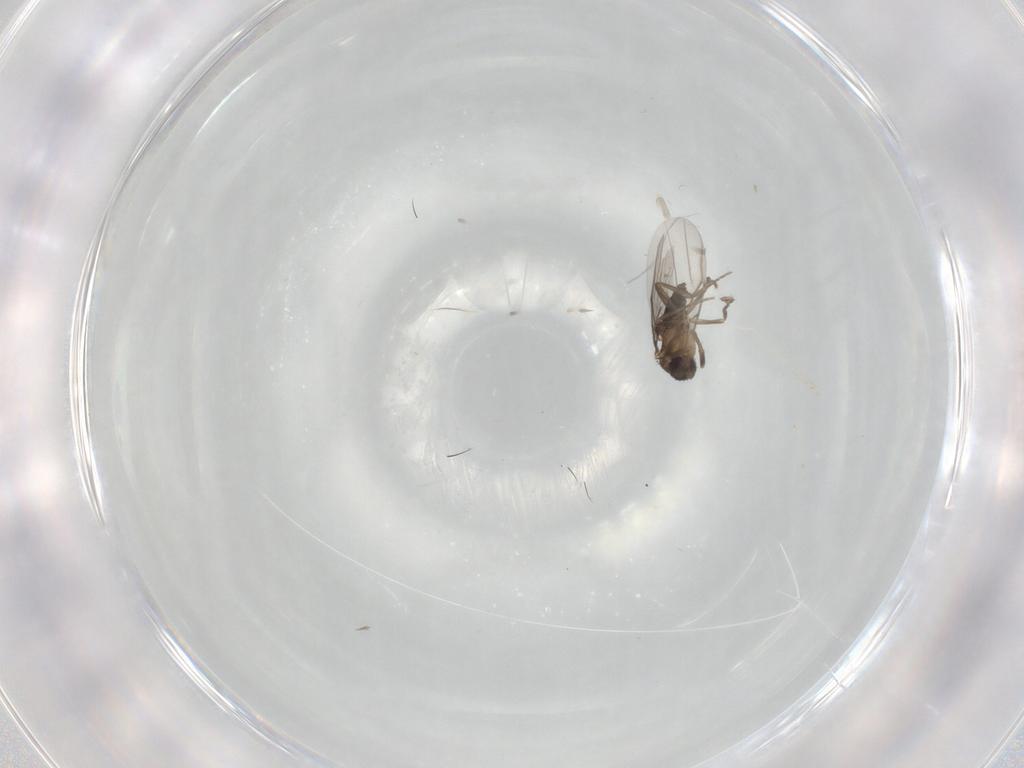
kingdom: Animalia
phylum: Arthropoda
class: Insecta
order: Diptera
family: Cecidomyiidae
